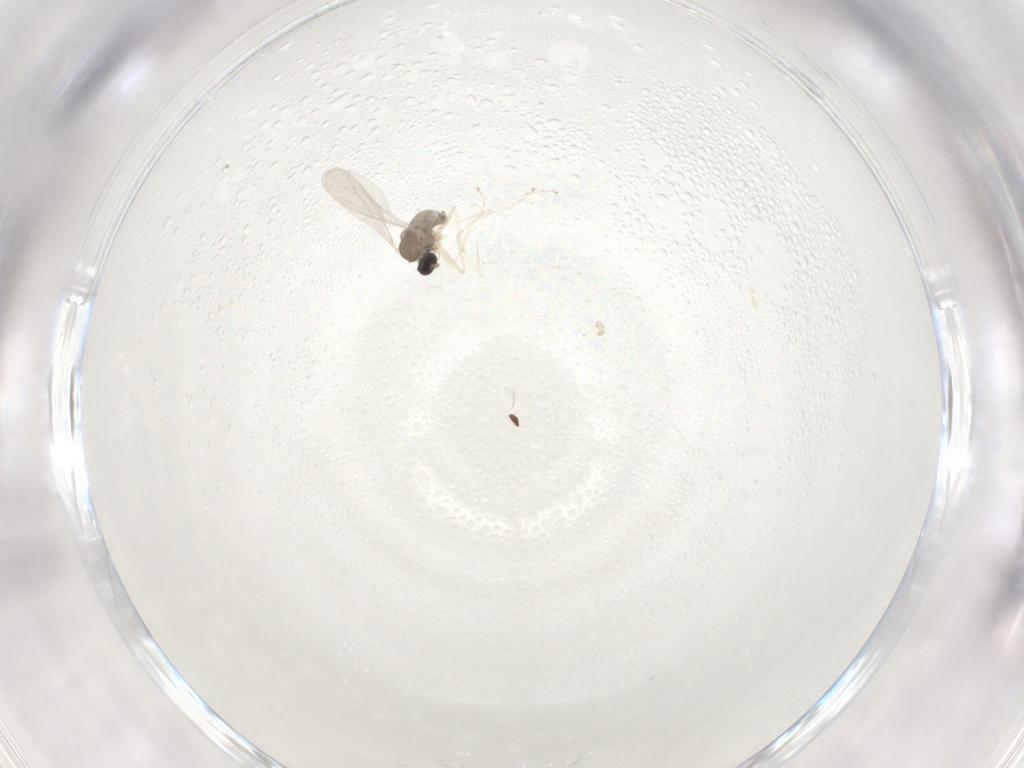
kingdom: Animalia
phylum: Arthropoda
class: Insecta
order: Diptera
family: Cecidomyiidae
